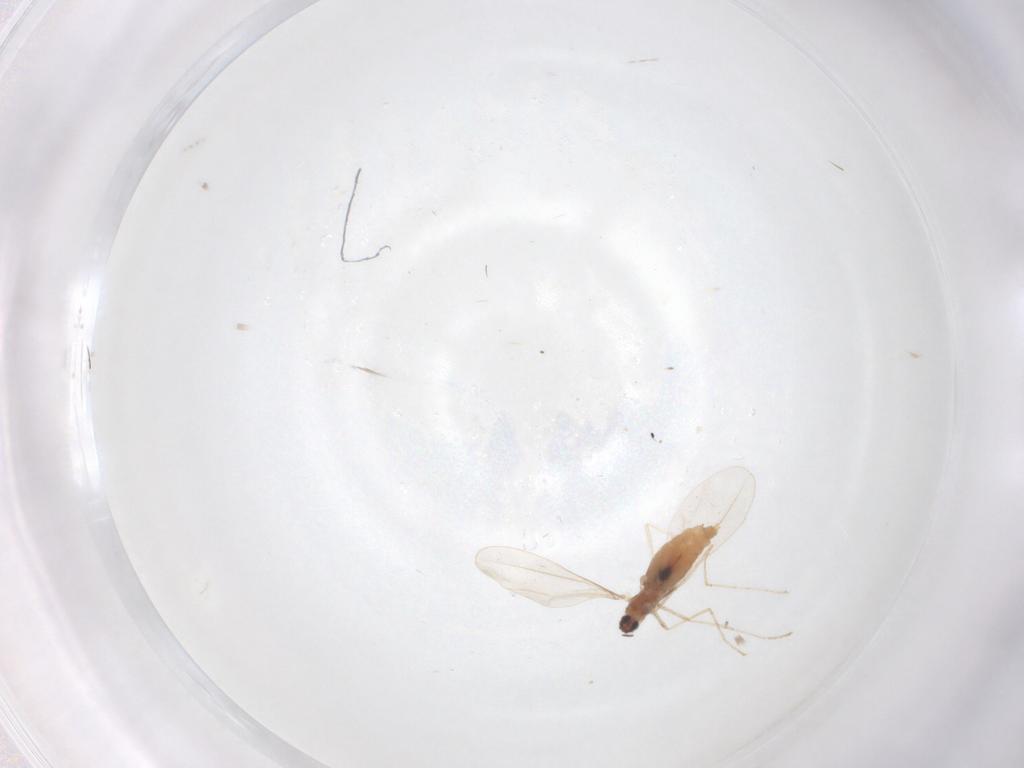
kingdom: Animalia
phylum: Arthropoda
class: Insecta
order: Diptera
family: Cecidomyiidae
